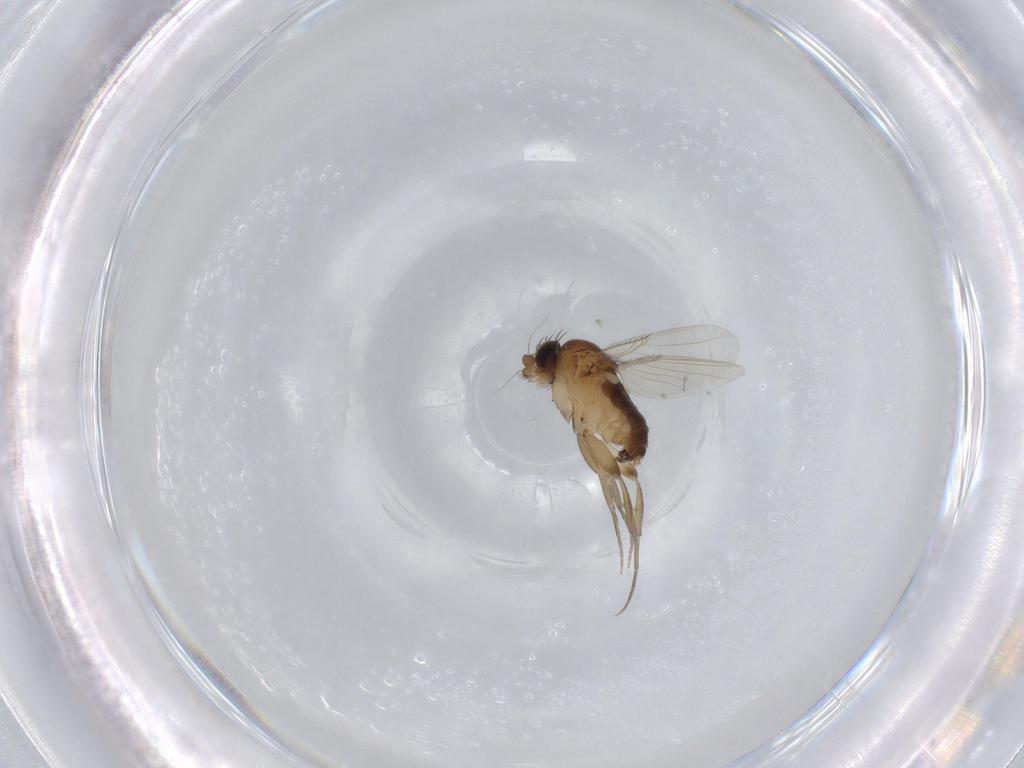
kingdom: Animalia
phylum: Arthropoda
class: Insecta
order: Diptera
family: Phoridae
